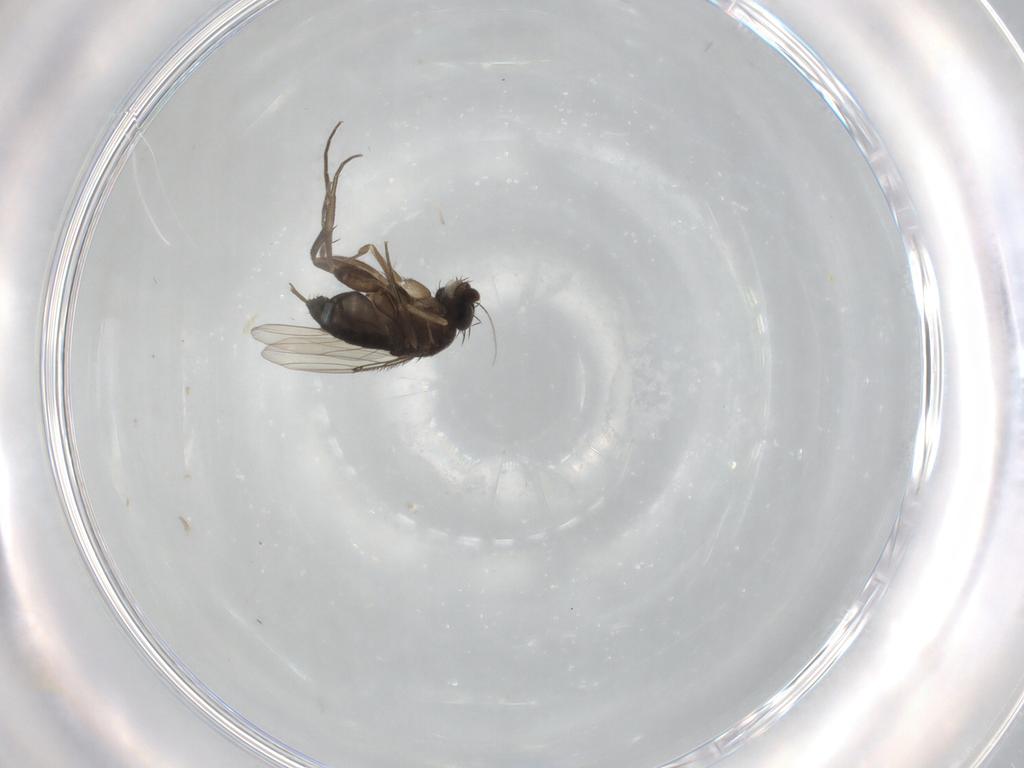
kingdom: Animalia
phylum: Arthropoda
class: Insecta
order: Diptera
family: Phoridae
